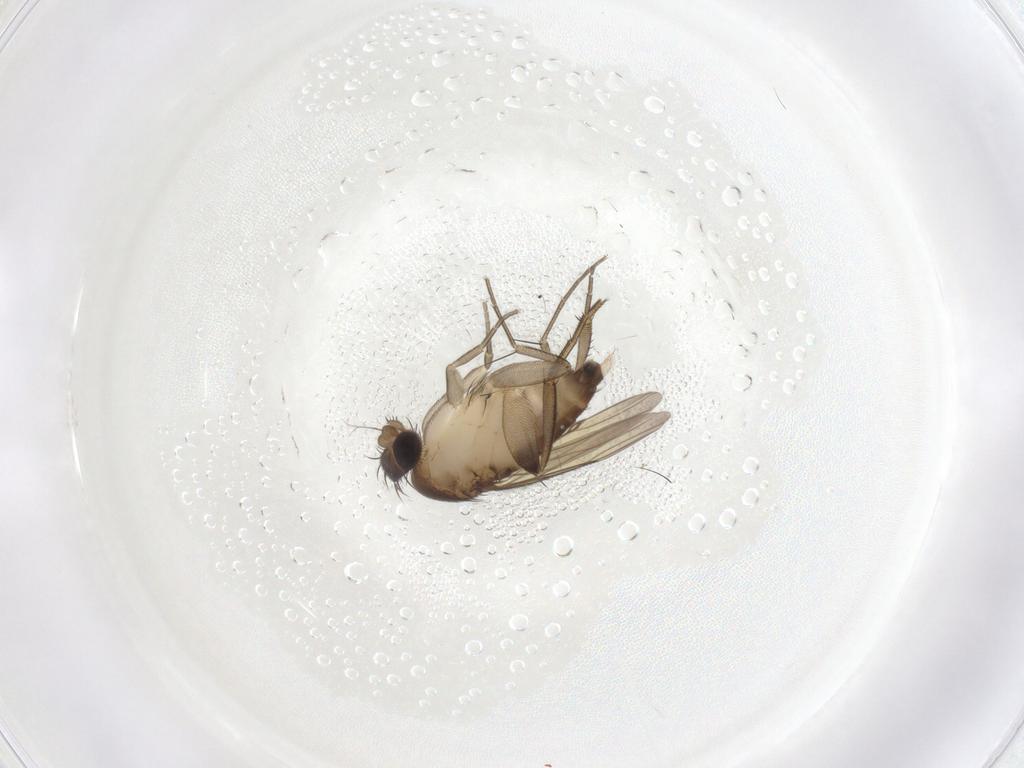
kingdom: Animalia
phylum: Arthropoda
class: Insecta
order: Diptera
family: Phoridae
